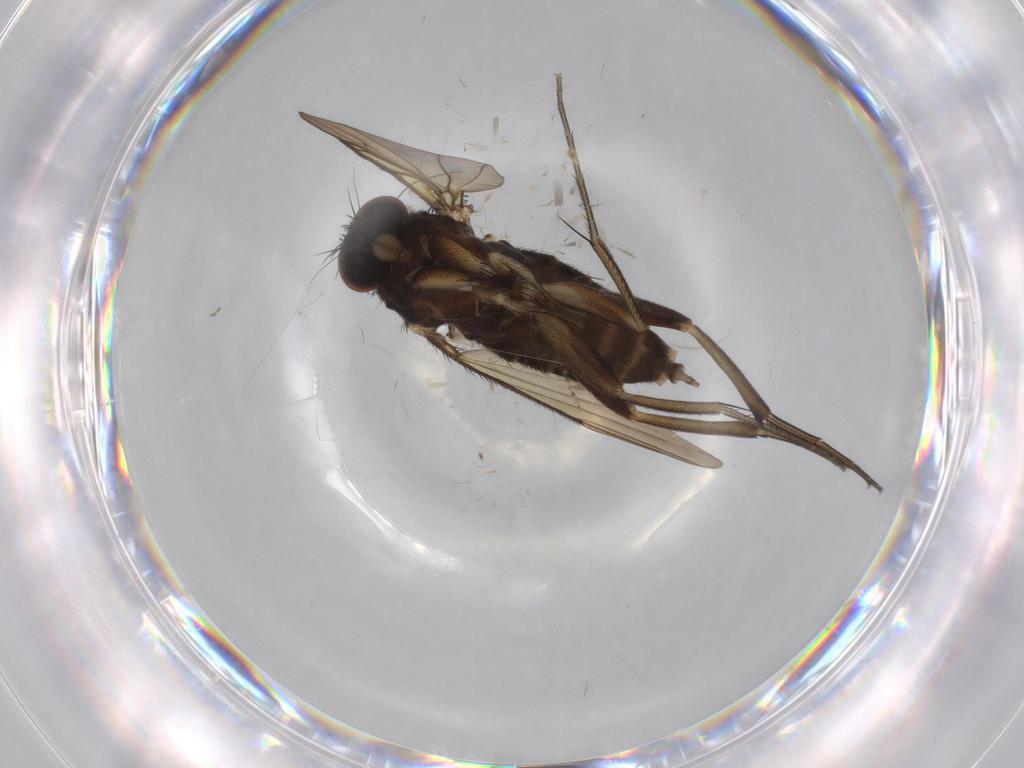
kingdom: Animalia
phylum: Arthropoda
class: Insecta
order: Diptera
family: Phoridae
